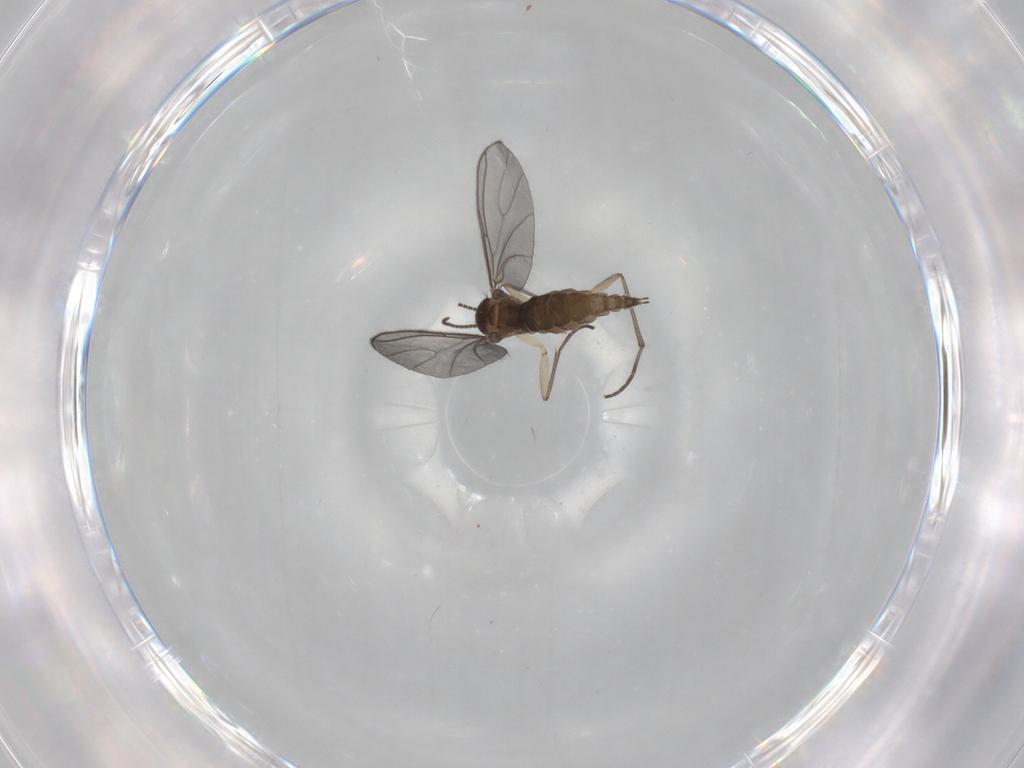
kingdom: Animalia
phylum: Arthropoda
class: Insecta
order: Diptera
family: Sciaridae
